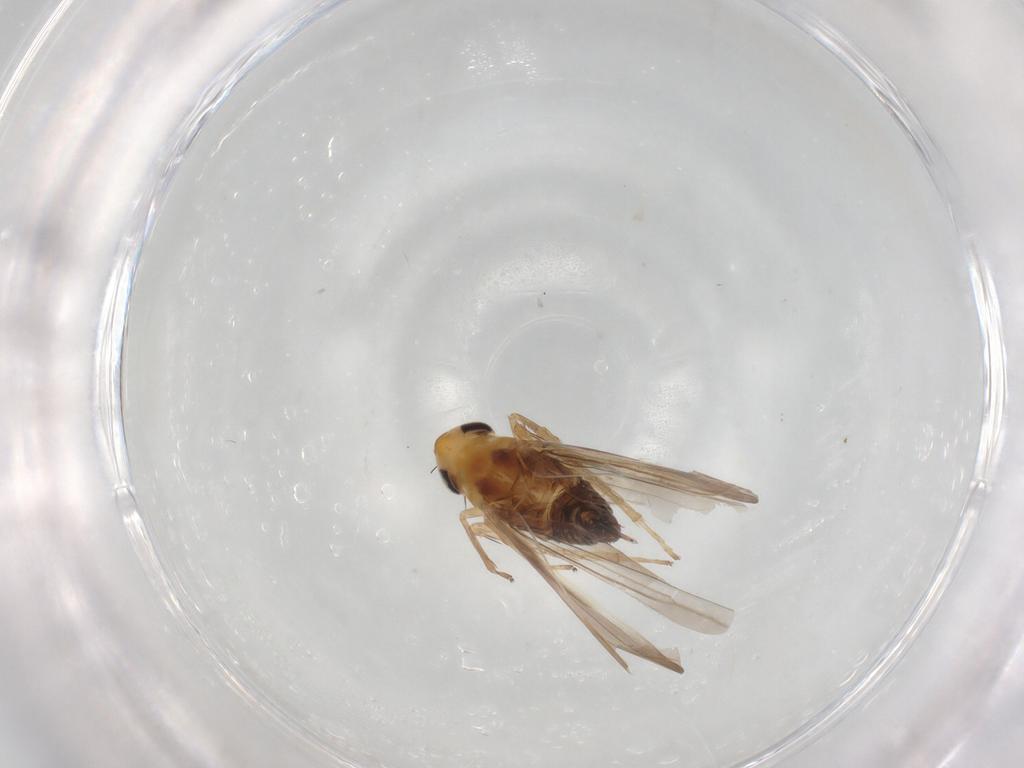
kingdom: Animalia
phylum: Arthropoda
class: Insecta
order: Hemiptera
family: Cicadellidae
